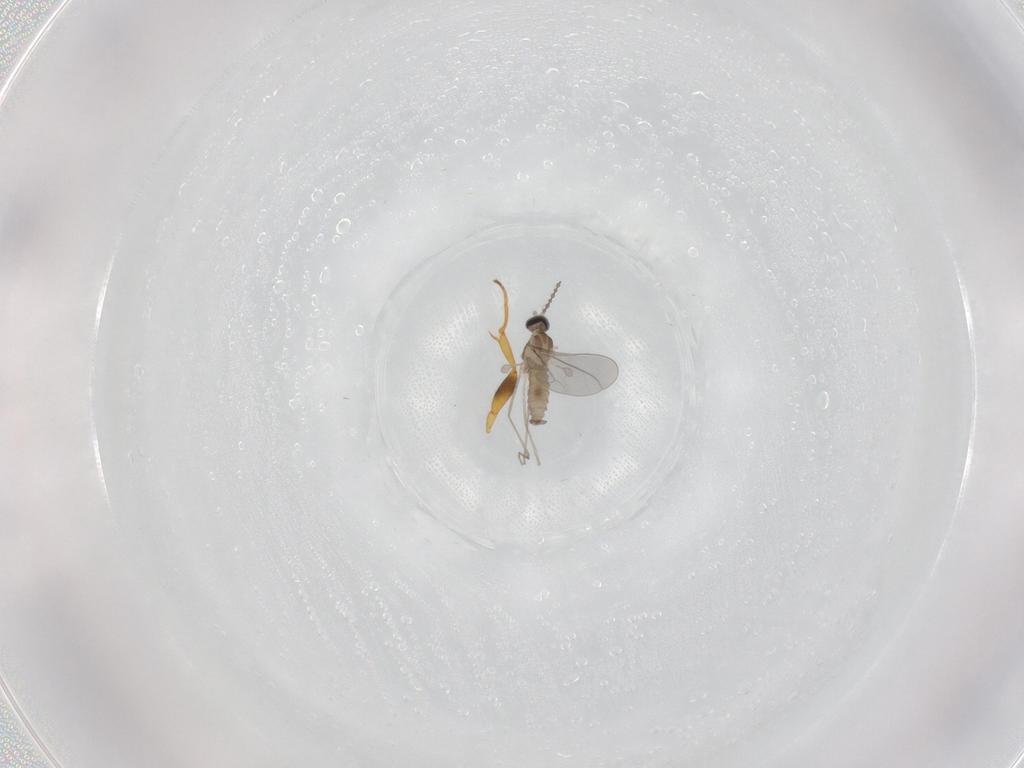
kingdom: Animalia
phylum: Arthropoda
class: Insecta
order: Diptera
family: Cecidomyiidae
